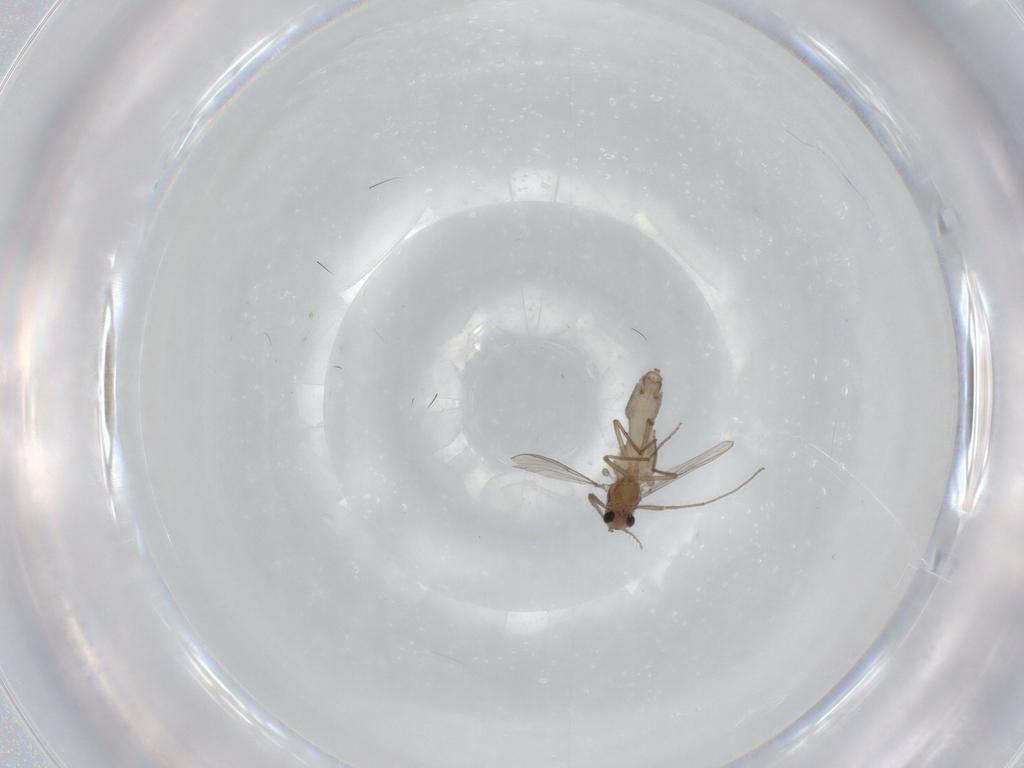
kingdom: Animalia
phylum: Arthropoda
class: Insecta
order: Diptera
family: Chironomidae
